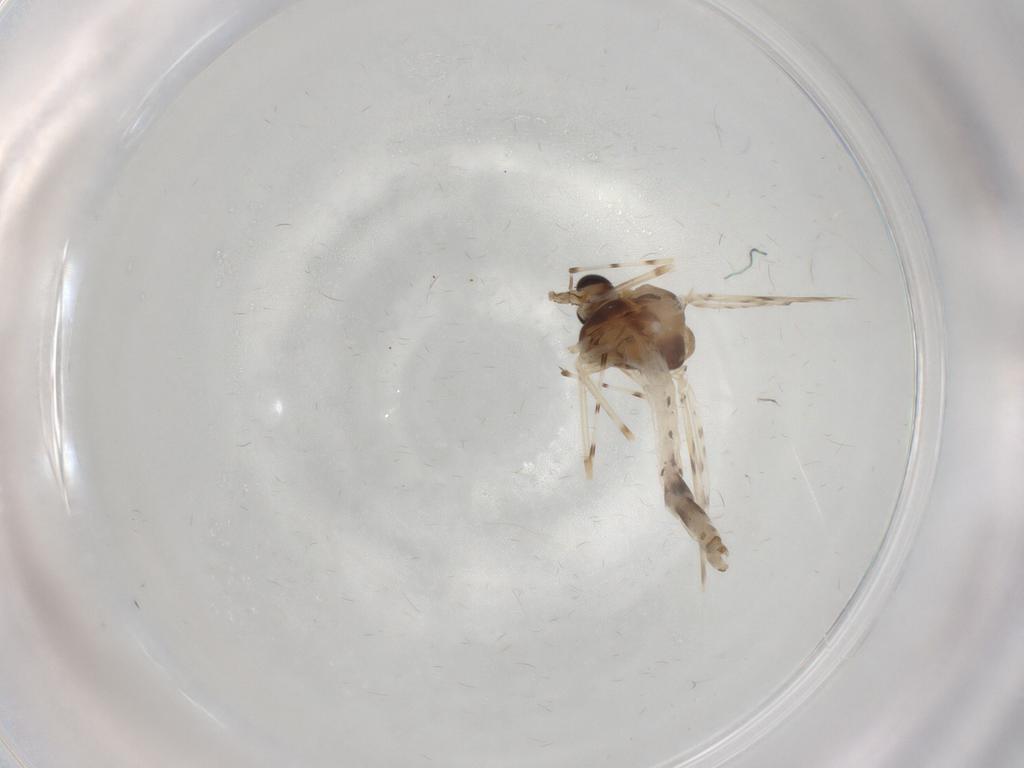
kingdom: Animalia
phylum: Arthropoda
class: Insecta
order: Diptera
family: Chironomidae
